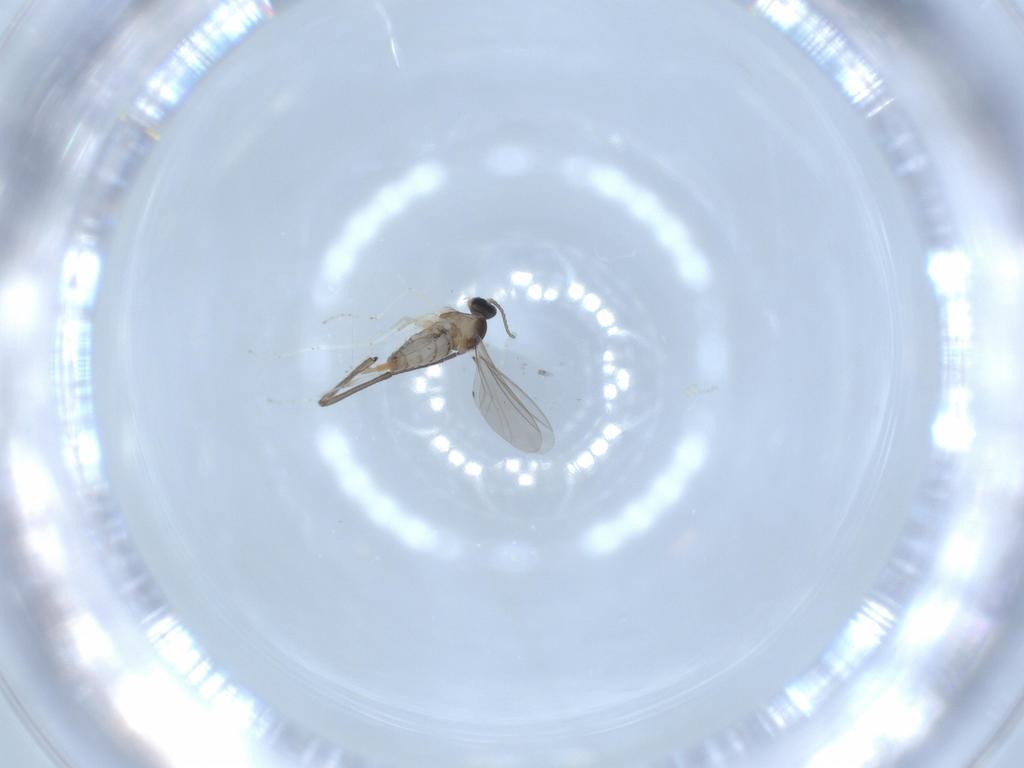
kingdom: Animalia
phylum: Arthropoda
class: Insecta
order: Diptera
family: Sciaridae
